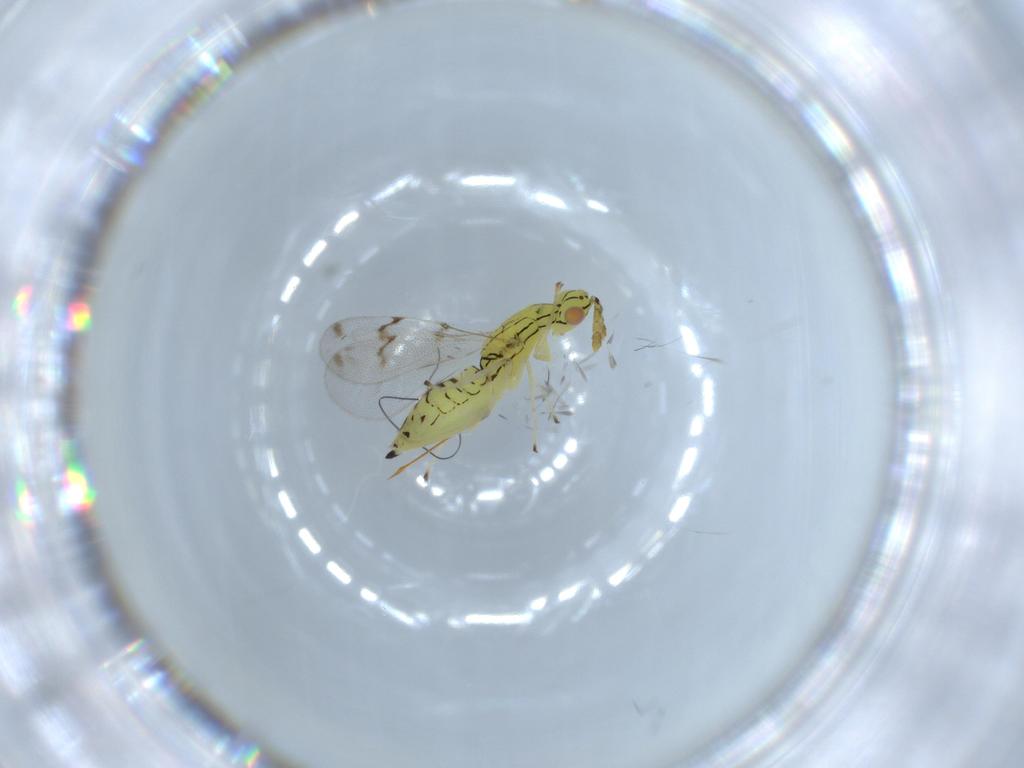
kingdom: Animalia
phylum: Arthropoda
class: Insecta
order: Hymenoptera
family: Eulophidae
